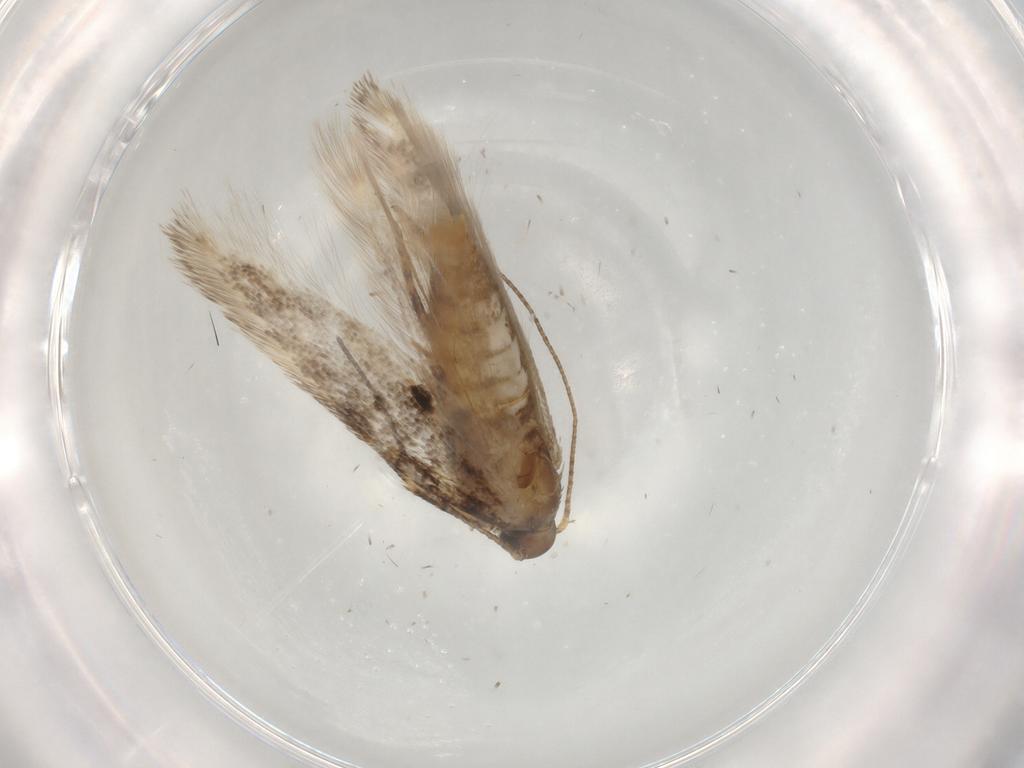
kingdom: Animalia
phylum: Arthropoda
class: Insecta
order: Lepidoptera
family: Gelechiidae
